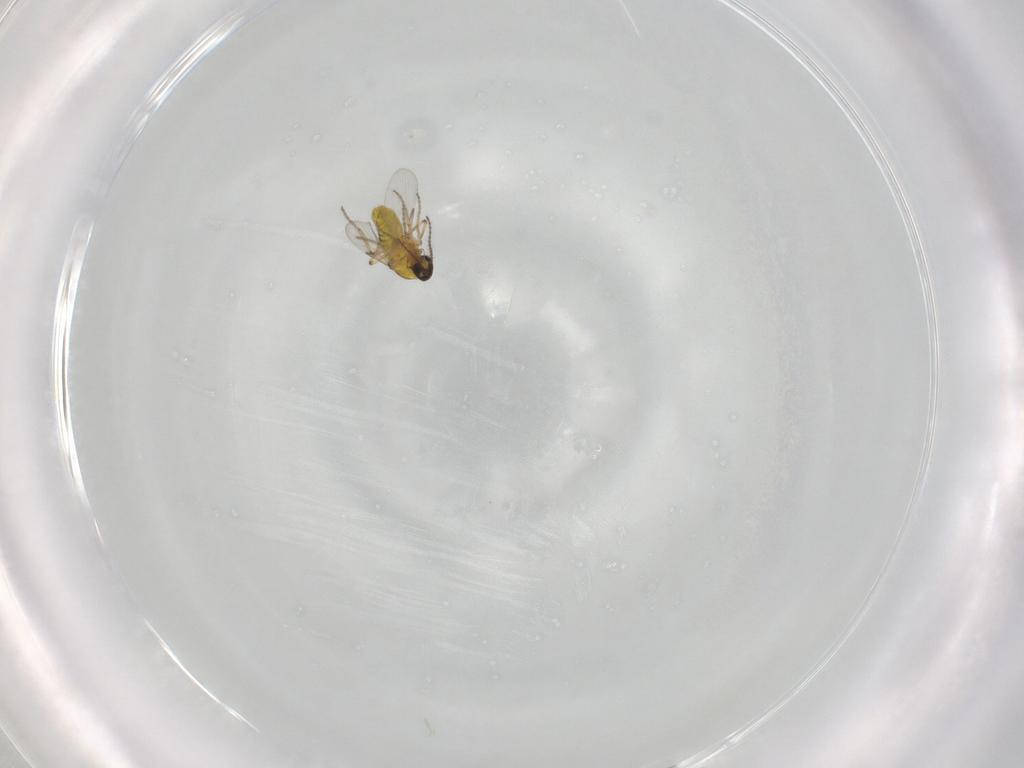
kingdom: Animalia
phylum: Arthropoda
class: Insecta
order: Diptera
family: Ceratopogonidae
